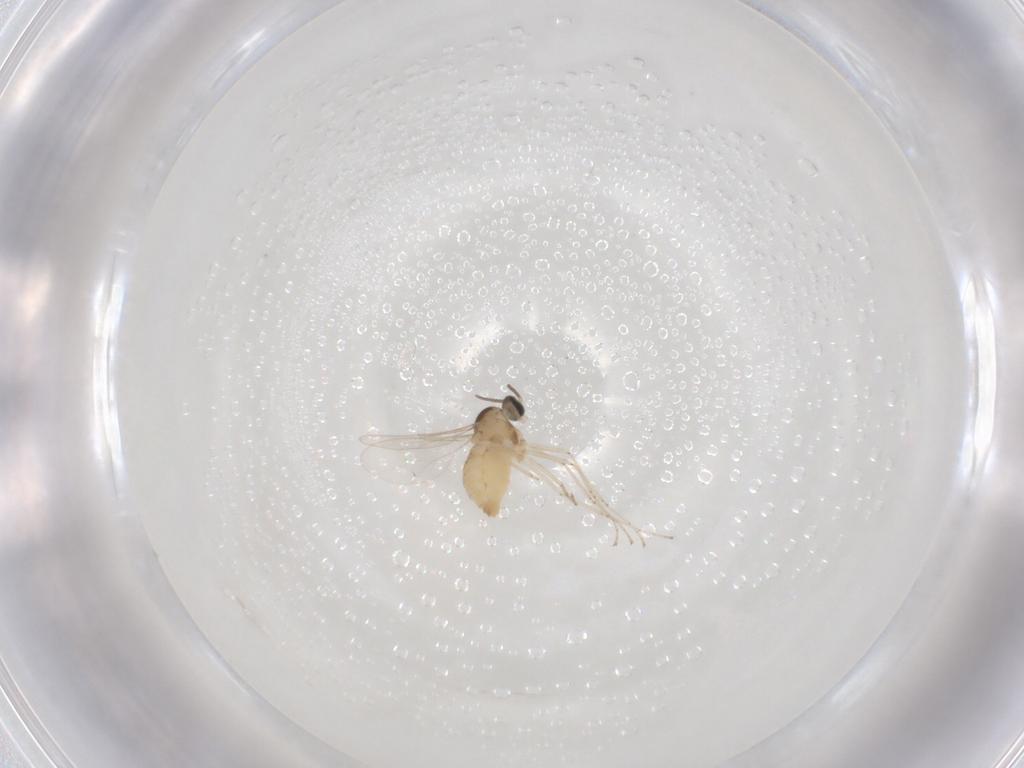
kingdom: Animalia
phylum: Arthropoda
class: Insecta
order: Diptera
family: Cecidomyiidae
